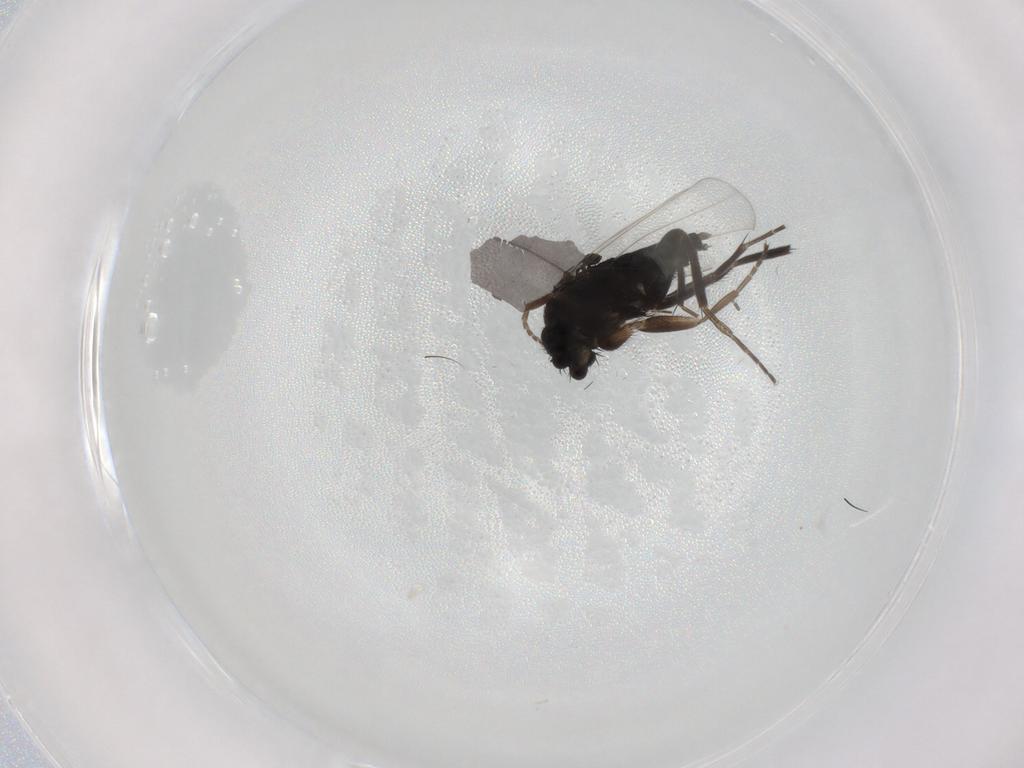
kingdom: Animalia
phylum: Arthropoda
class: Insecta
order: Diptera
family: Phoridae
